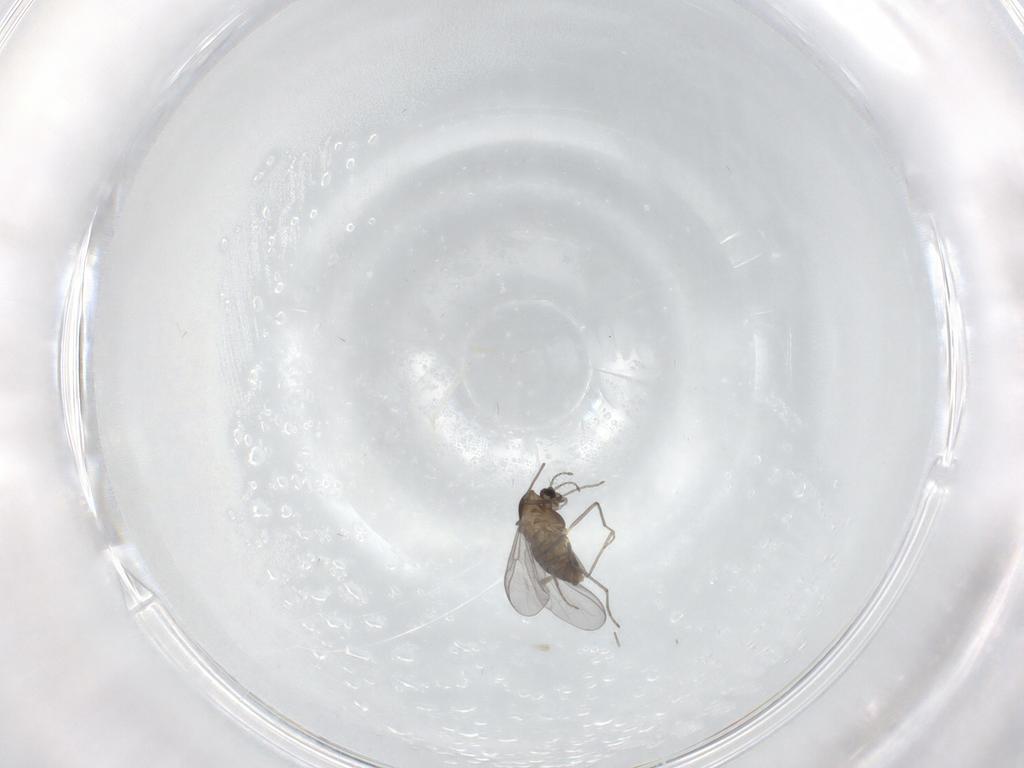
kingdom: Animalia
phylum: Arthropoda
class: Insecta
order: Diptera
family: Chironomidae
